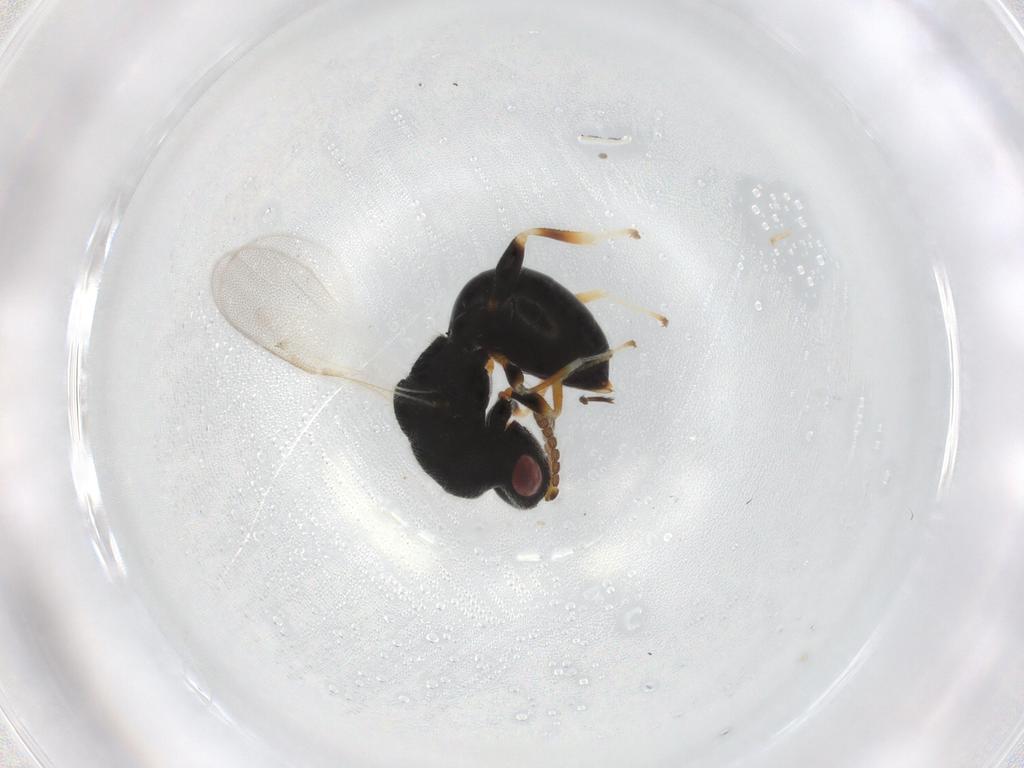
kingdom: Animalia
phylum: Arthropoda
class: Insecta
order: Hymenoptera
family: Eurytomidae
